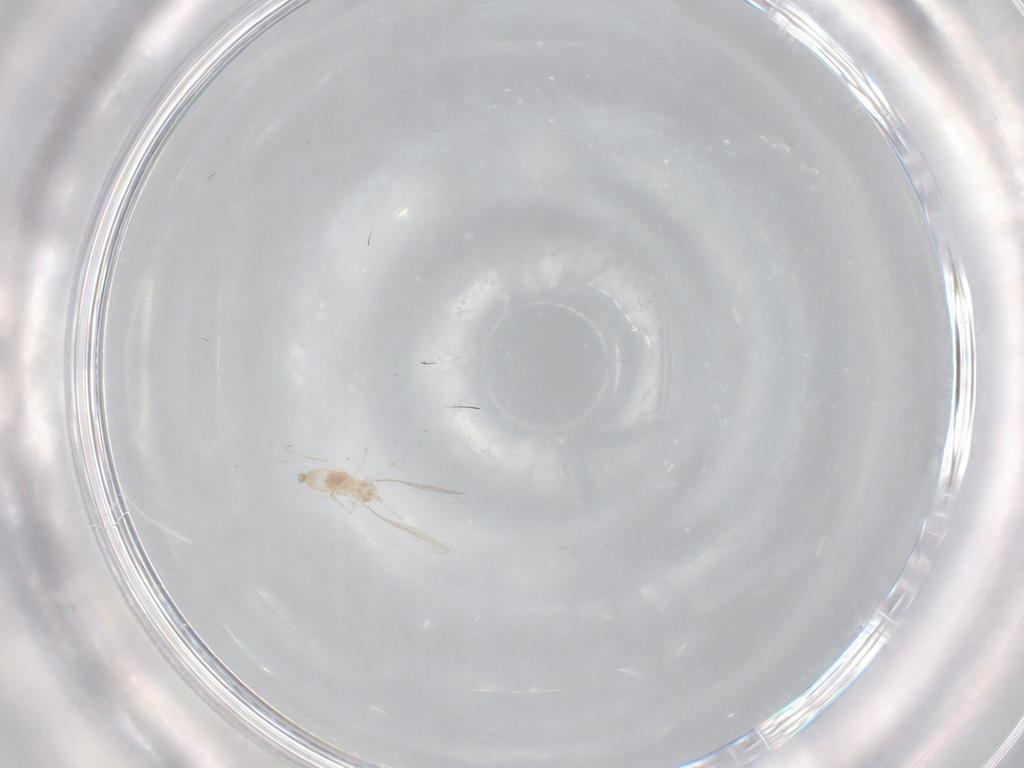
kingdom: Animalia
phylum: Arthropoda
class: Insecta
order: Diptera
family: Cecidomyiidae
